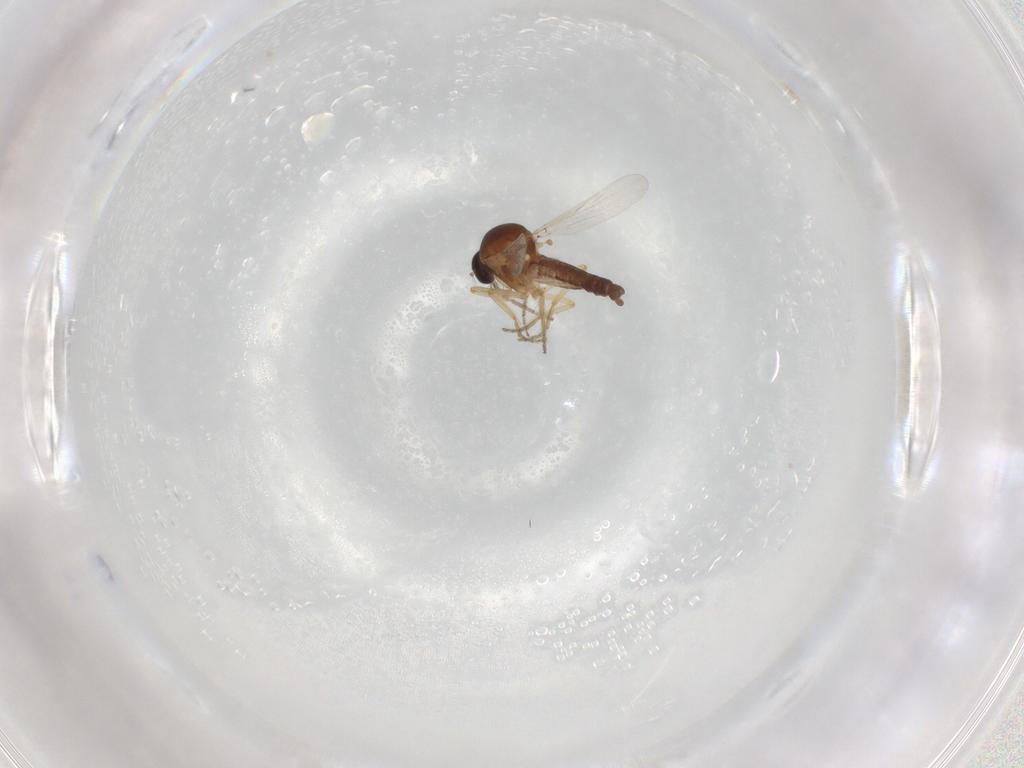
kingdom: Animalia
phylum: Arthropoda
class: Insecta
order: Diptera
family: Ceratopogonidae
